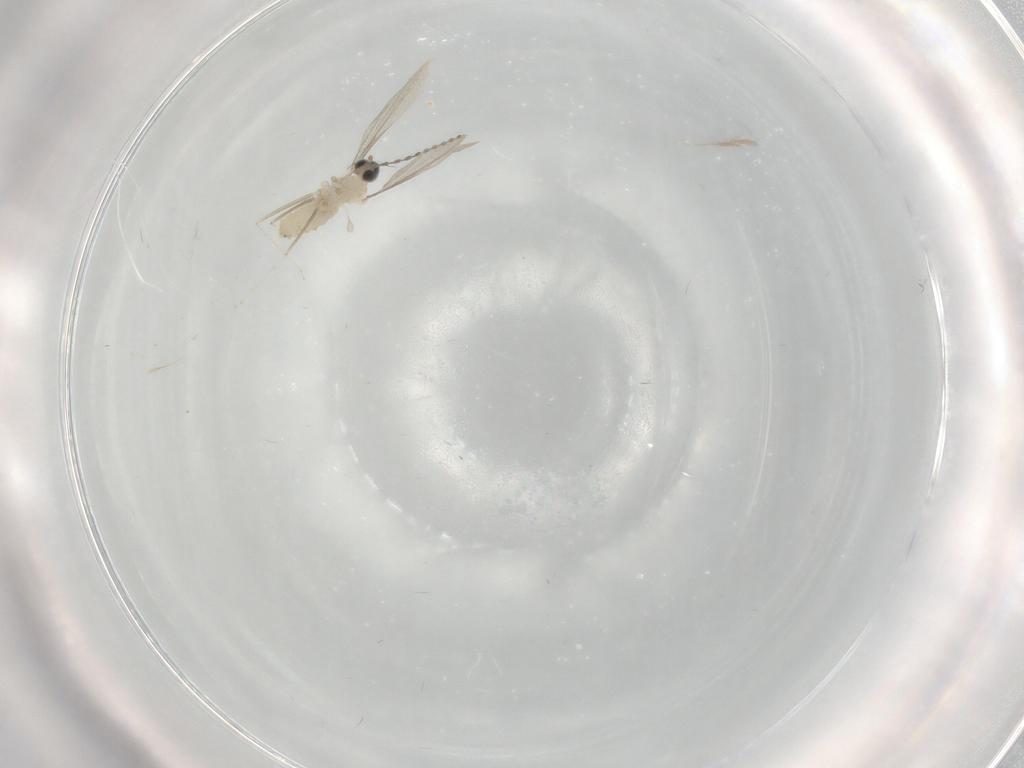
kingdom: Animalia
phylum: Arthropoda
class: Insecta
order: Diptera
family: Cecidomyiidae
